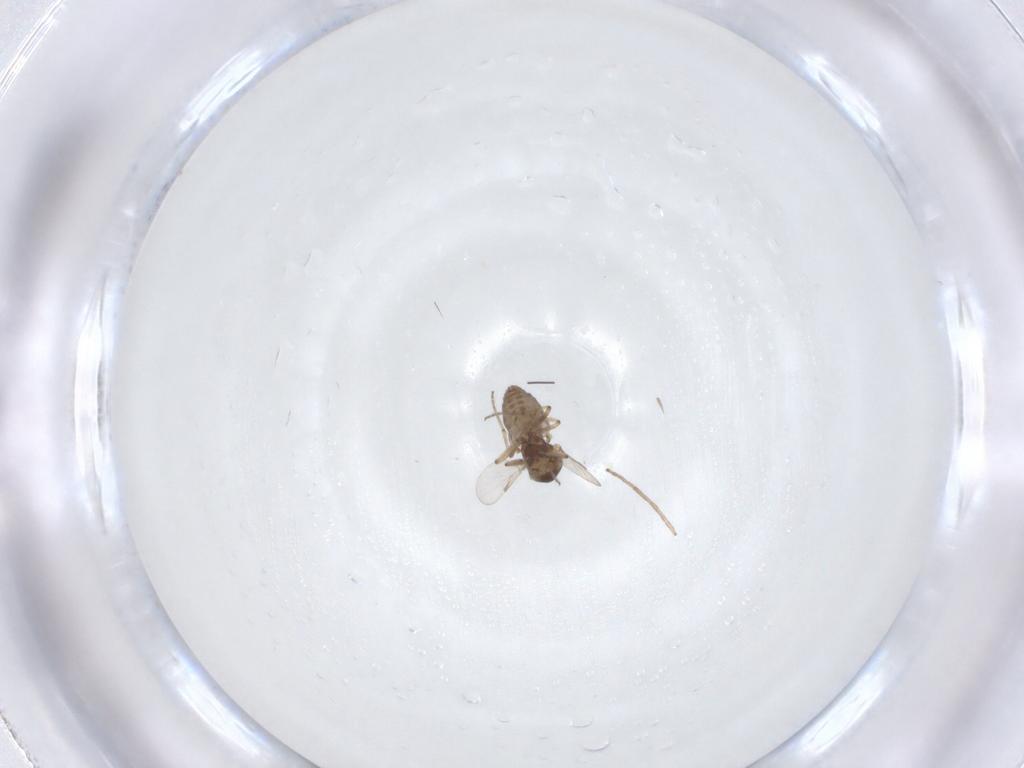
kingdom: Animalia
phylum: Arthropoda
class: Insecta
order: Diptera
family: Ceratopogonidae
